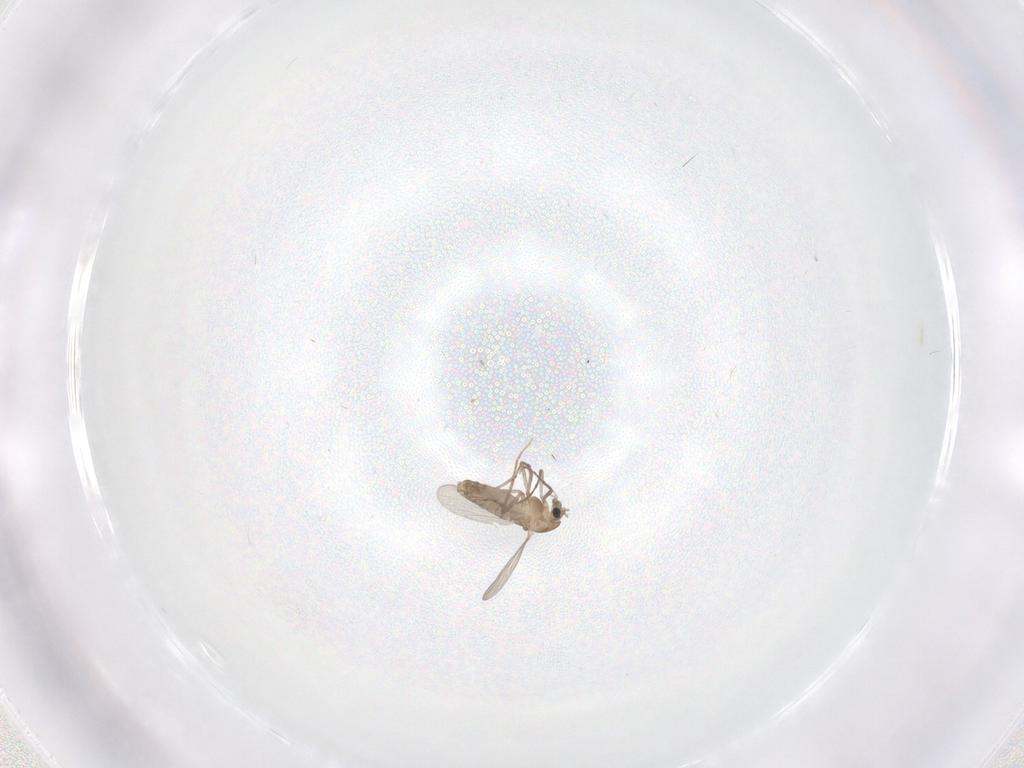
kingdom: Animalia
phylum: Arthropoda
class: Insecta
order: Diptera
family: Chironomidae
